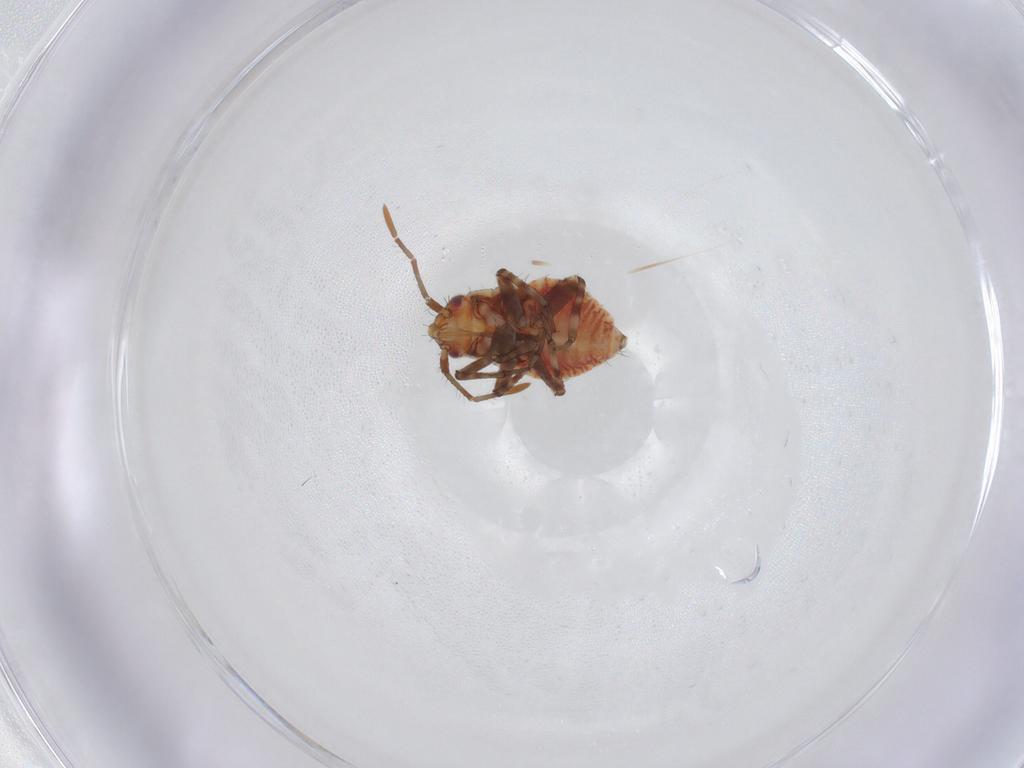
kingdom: Animalia
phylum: Arthropoda
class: Insecta
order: Hemiptera
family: Miridae
